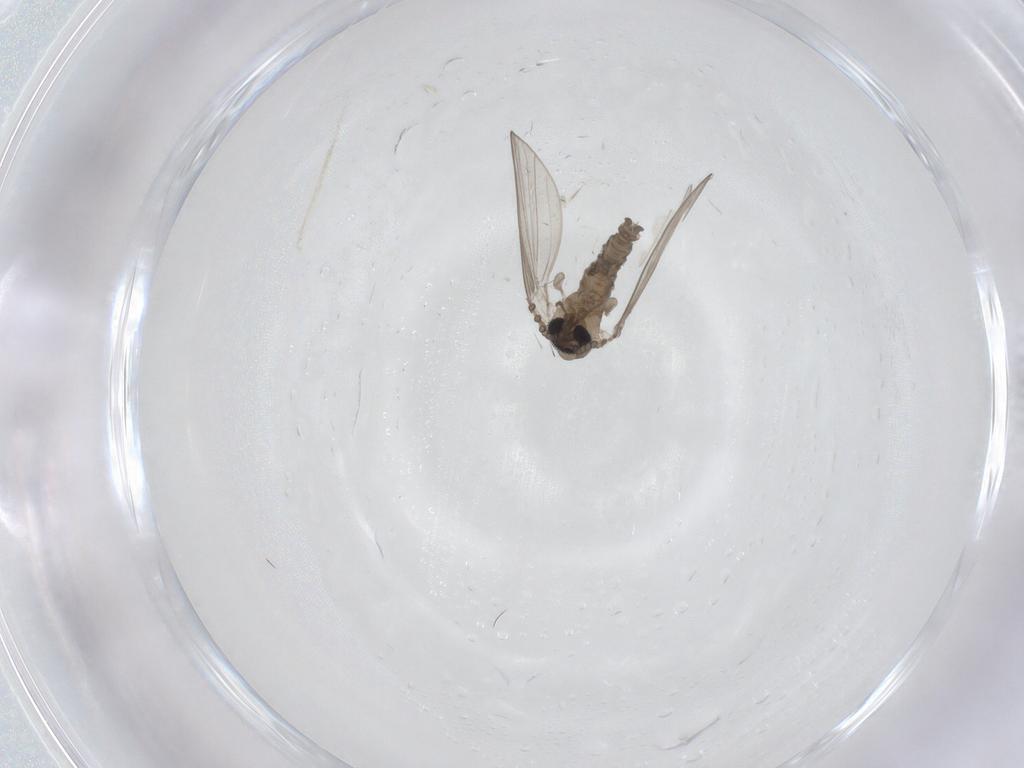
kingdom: Animalia
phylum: Arthropoda
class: Insecta
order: Diptera
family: Psychodidae
